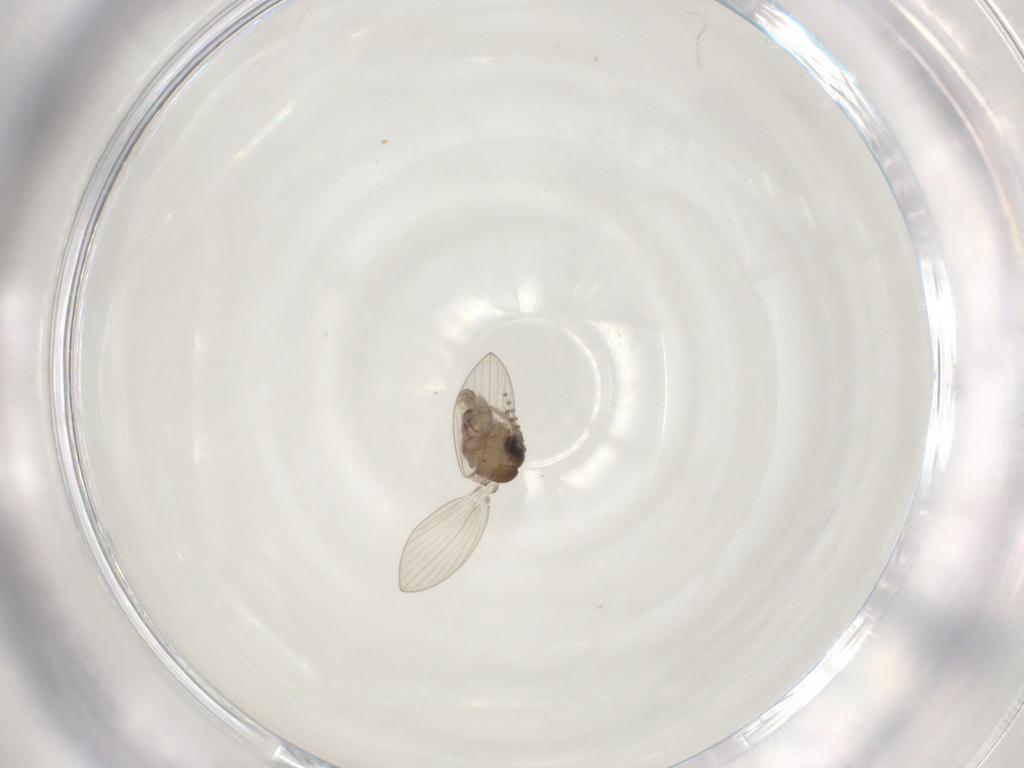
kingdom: Animalia
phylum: Arthropoda
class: Insecta
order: Diptera
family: Psychodidae
